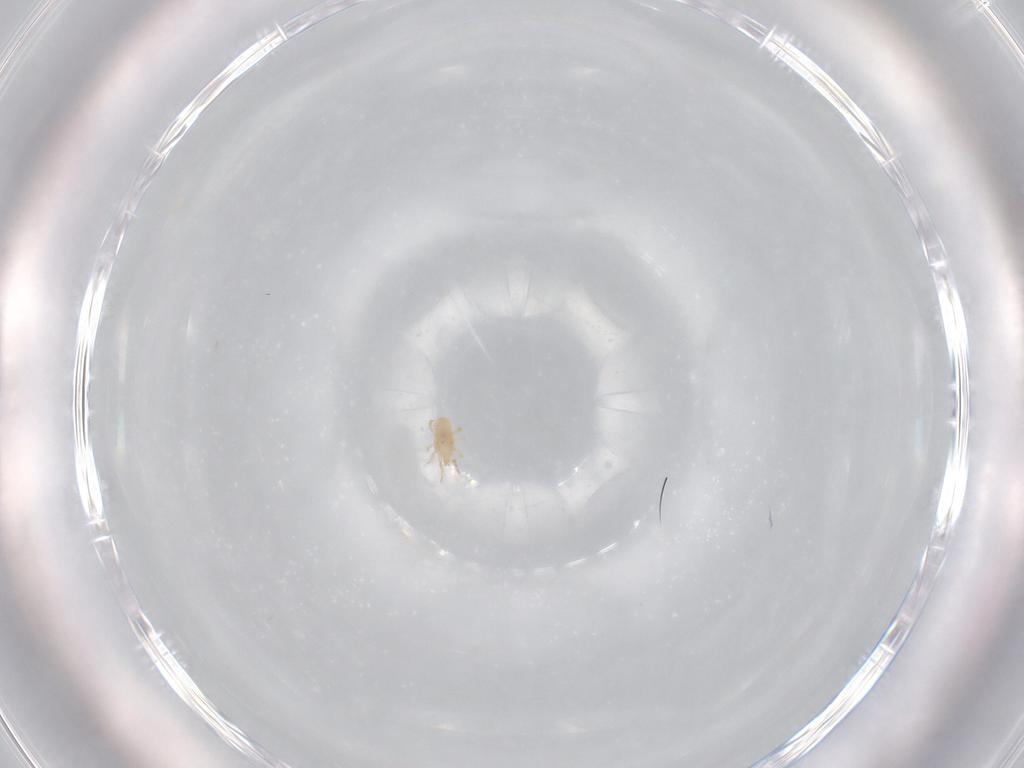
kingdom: Animalia
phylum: Arthropoda
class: Arachnida
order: Mesostigmata
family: Ascidae
